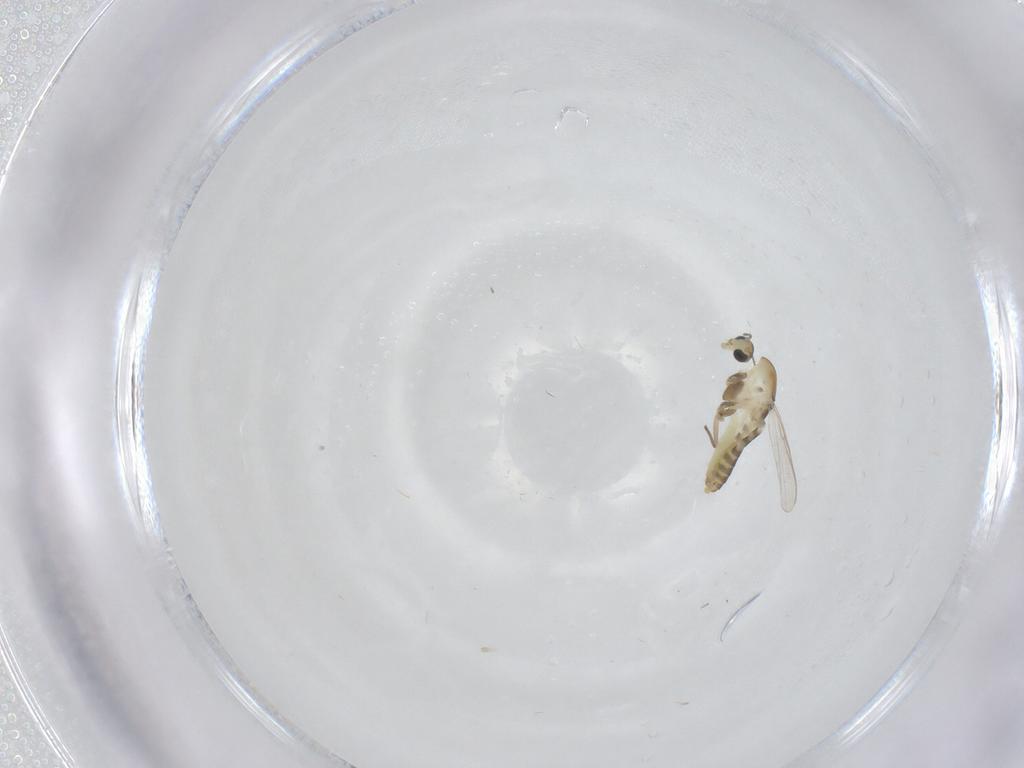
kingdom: Animalia
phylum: Arthropoda
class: Insecta
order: Diptera
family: Chironomidae
